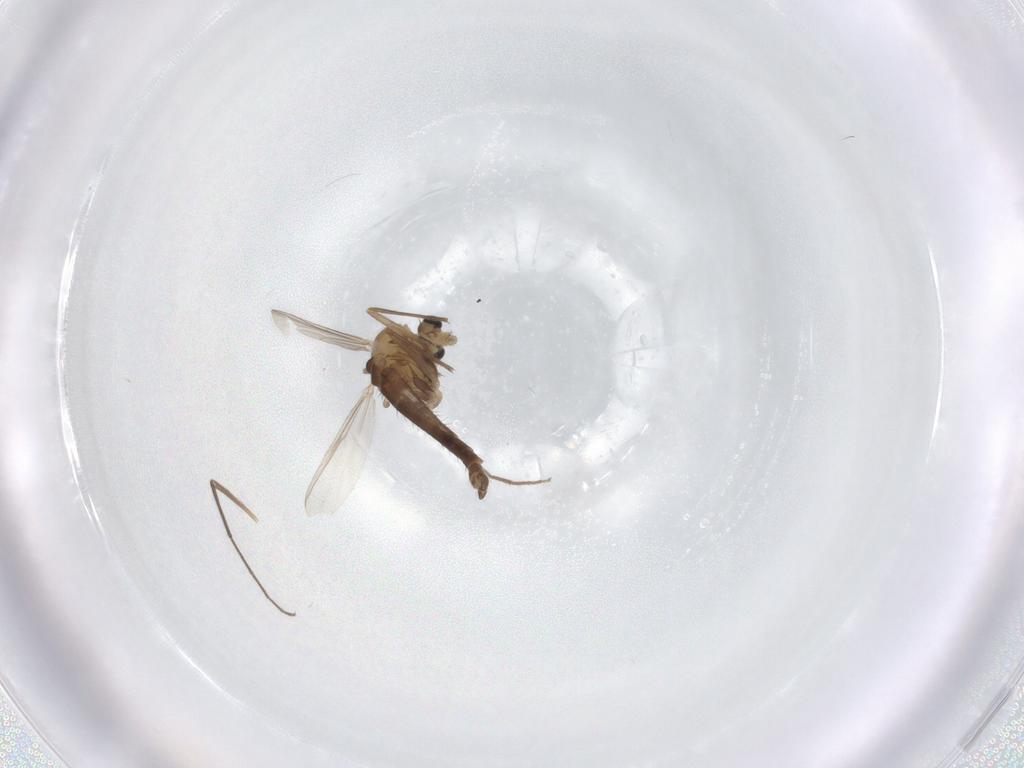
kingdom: Animalia
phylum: Arthropoda
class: Insecta
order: Diptera
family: Chironomidae
